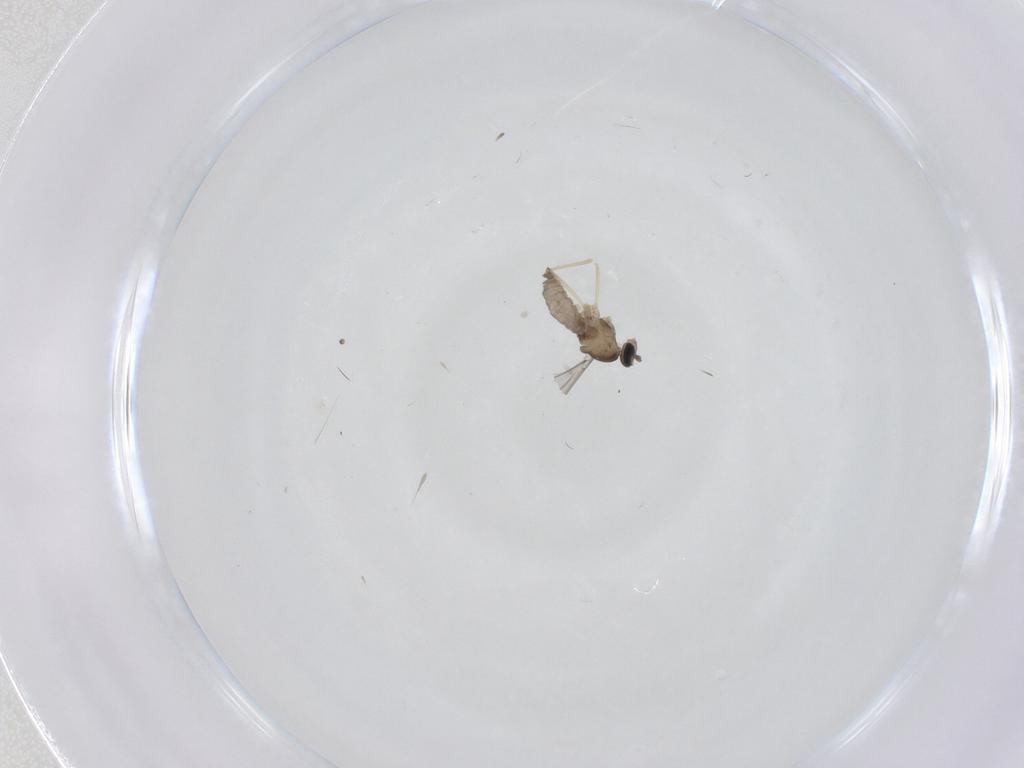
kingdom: Animalia
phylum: Arthropoda
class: Insecta
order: Diptera
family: Cecidomyiidae
